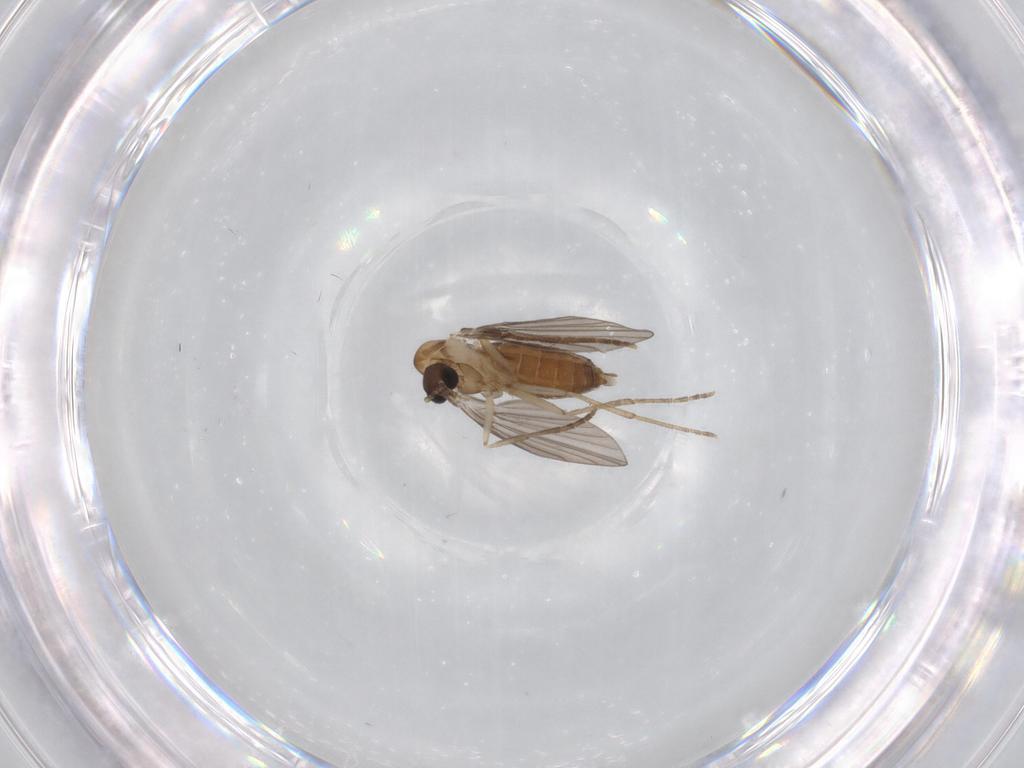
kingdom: Animalia
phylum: Arthropoda
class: Insecta
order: Diptera
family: Chironomidae
